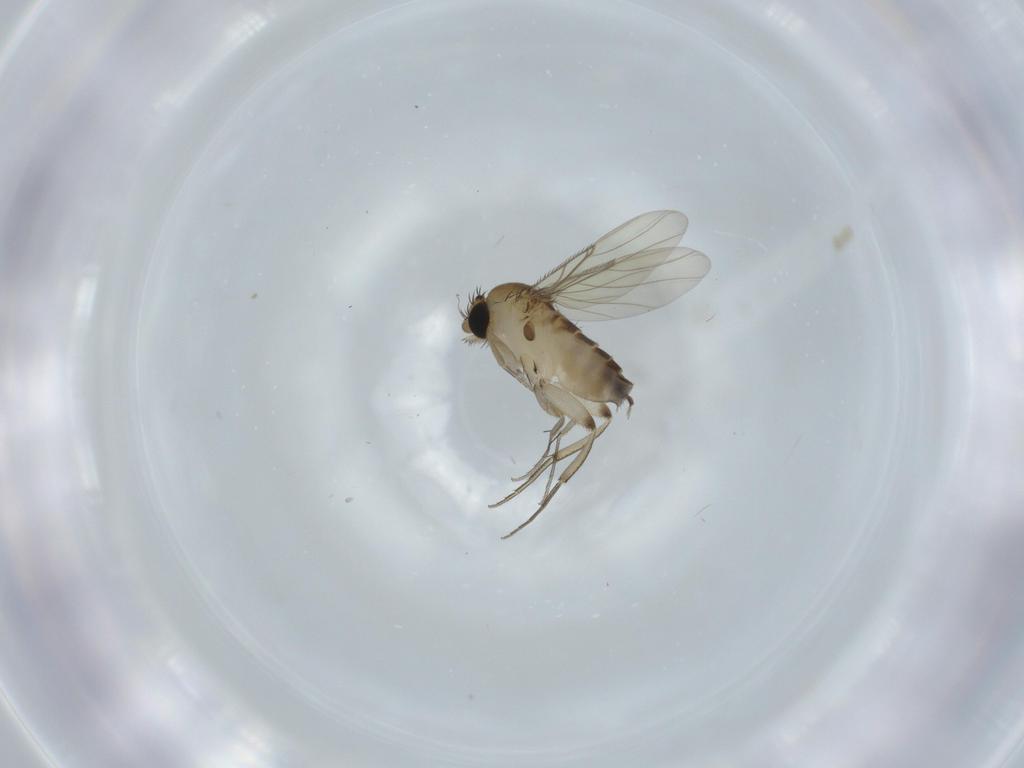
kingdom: Animalia
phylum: Arthropoda
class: Insecta
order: Diptera
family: Phoridae
